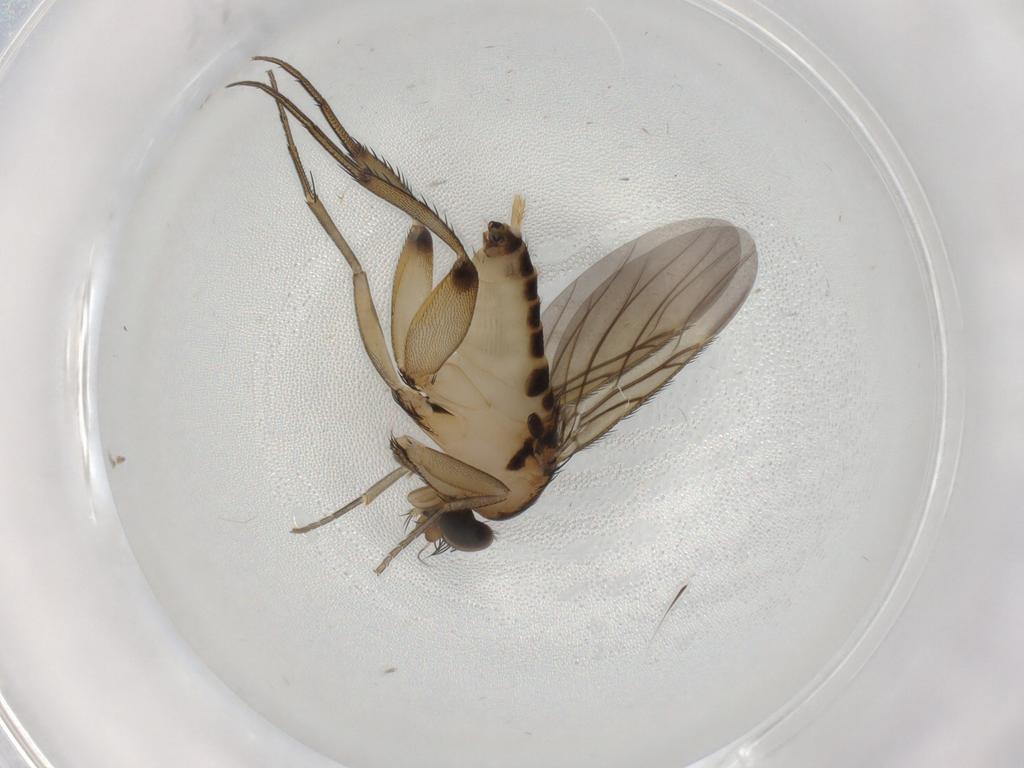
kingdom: Animalia
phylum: Arthropoda
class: Insecta
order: Diptera
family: Phoridae
